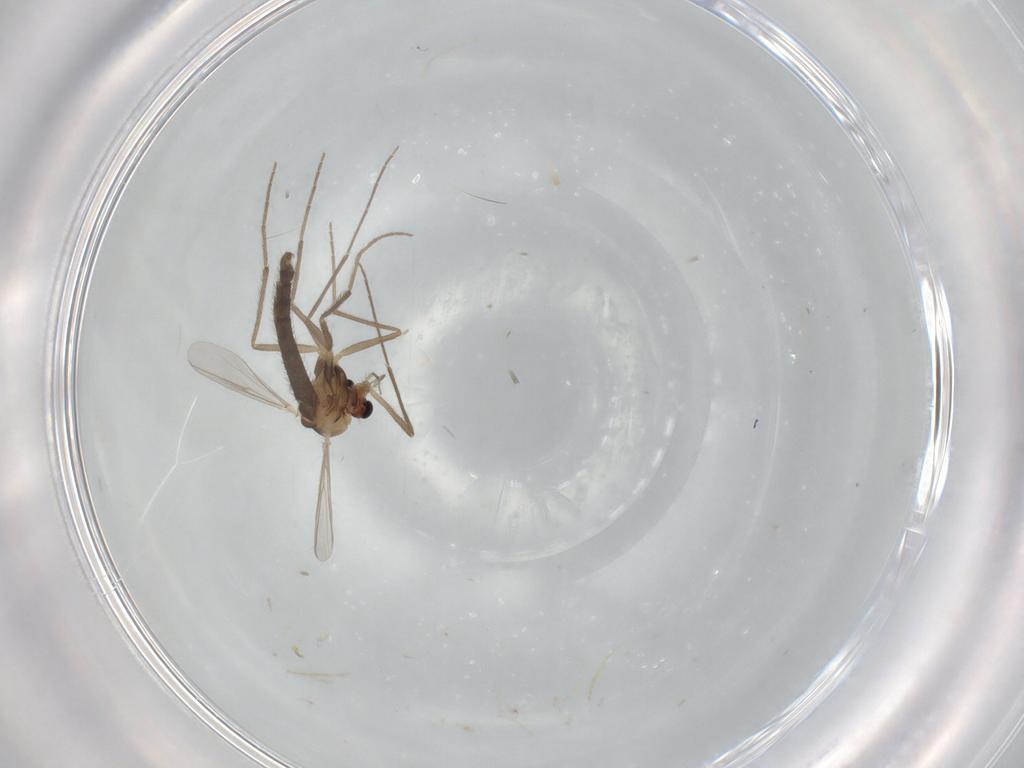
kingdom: Animalia
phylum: Arthropoda
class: Insecta
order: Diptera
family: Chironomidae
